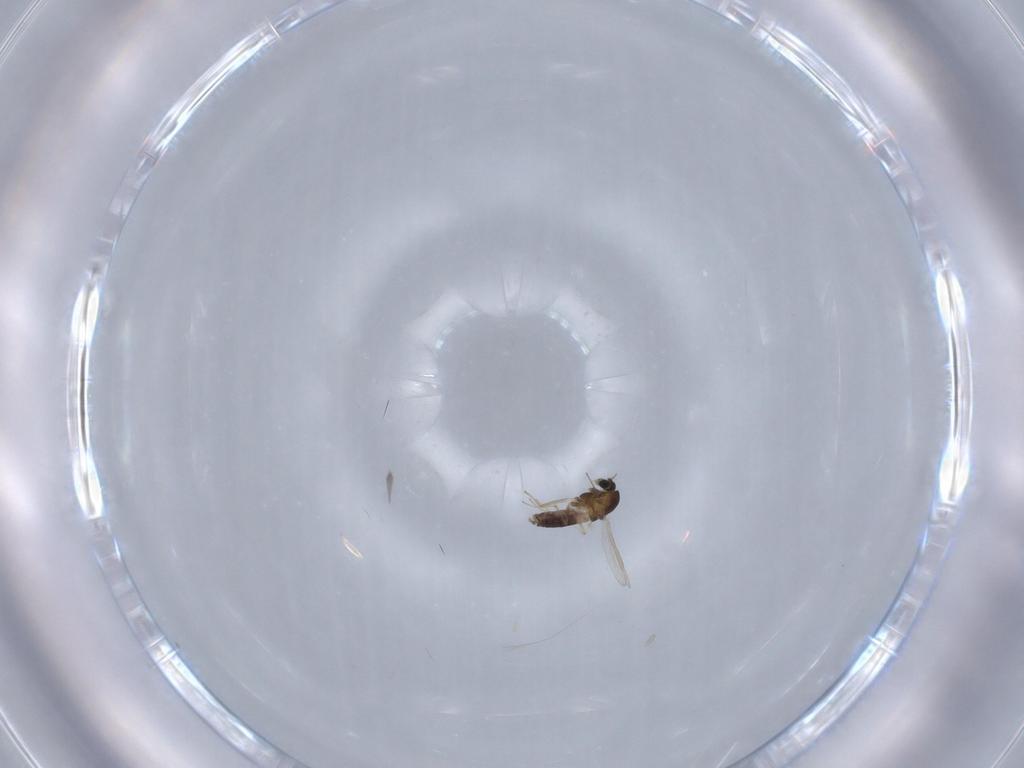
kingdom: Animalia
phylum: Arthropoda
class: Insecta
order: Diptera
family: Chironomidae
